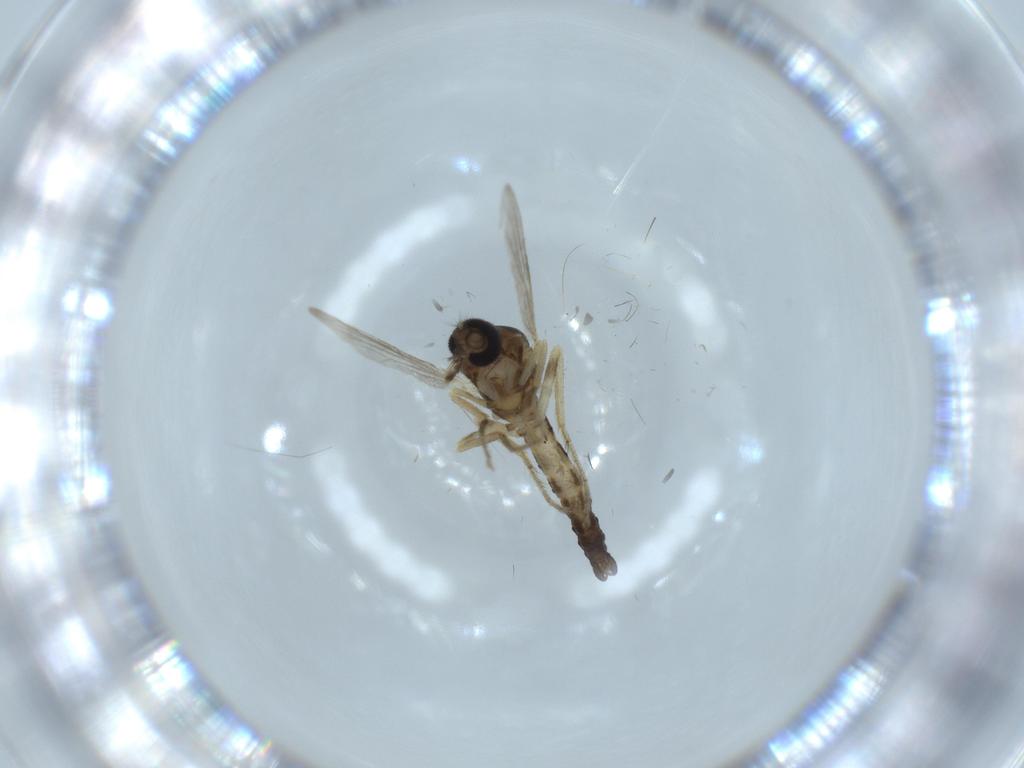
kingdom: Animalia
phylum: Arthropoda
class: Insecta
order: Diptera
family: Ceratopogonidae
